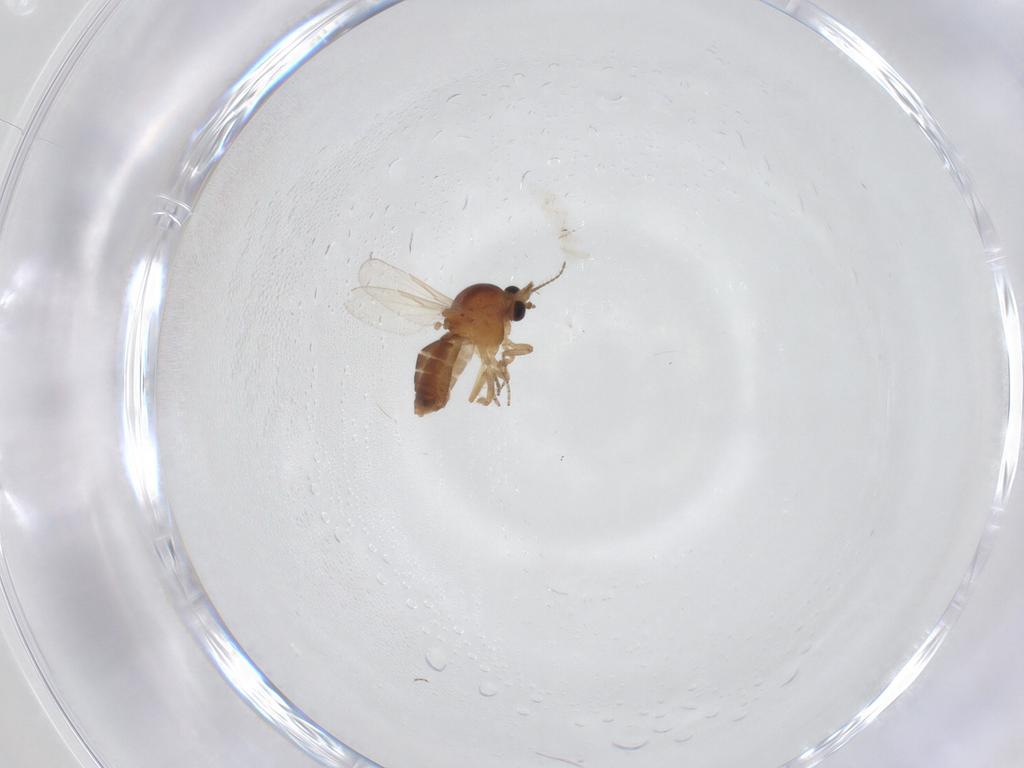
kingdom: Animalia
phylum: Arthropoda
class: Insecta
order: Diptera
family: Ceratopogonidae
